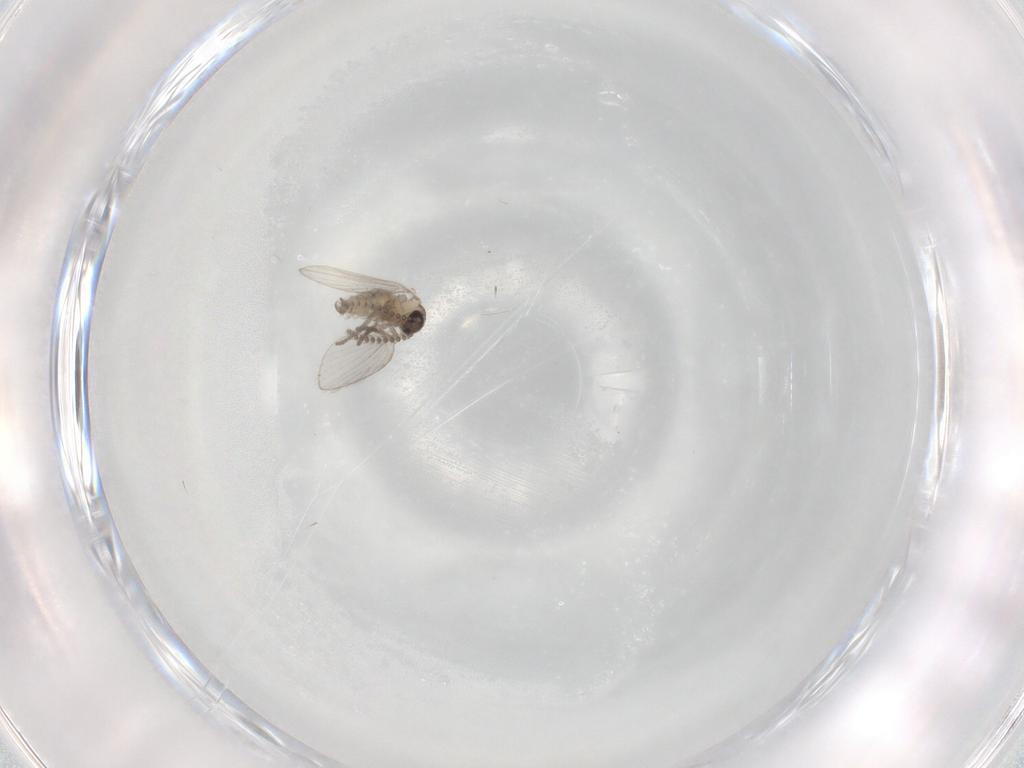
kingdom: Animalia
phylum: Arthropoda
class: Insecta
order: Diptera
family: Psychodidae
